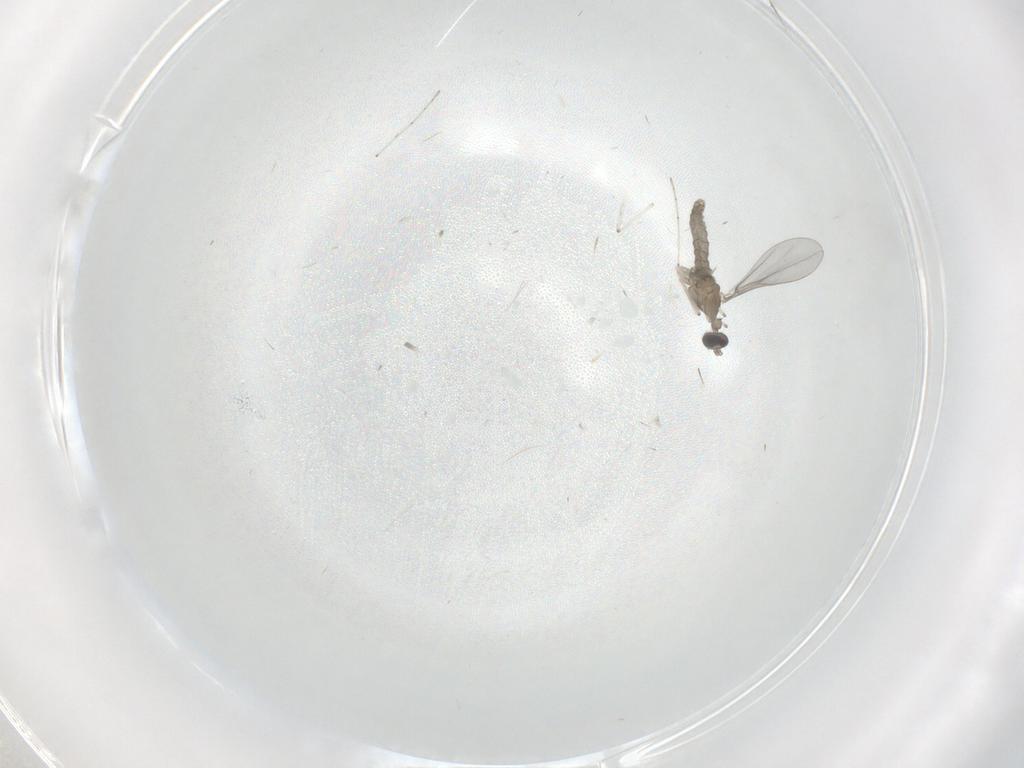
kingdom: Animalia
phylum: Arthropoda
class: Insecta
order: Diptera
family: Cecidomyiidae
